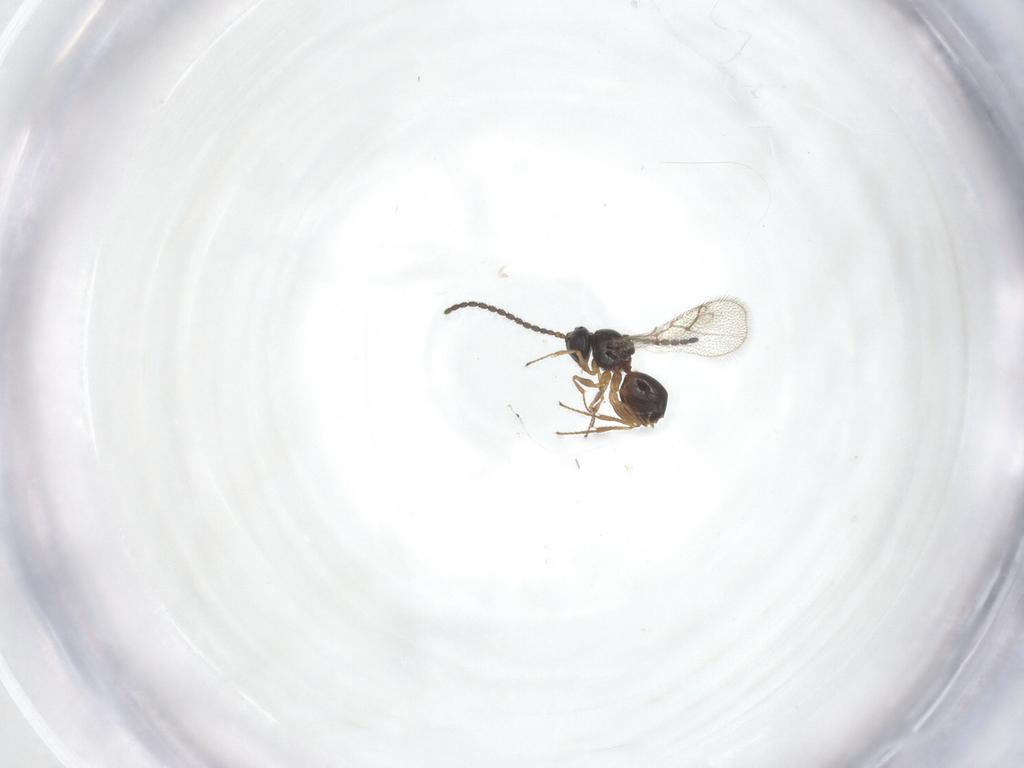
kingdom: Animalia
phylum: Arthropoda
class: Insecta
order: Hymenoptera
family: Figitidae
